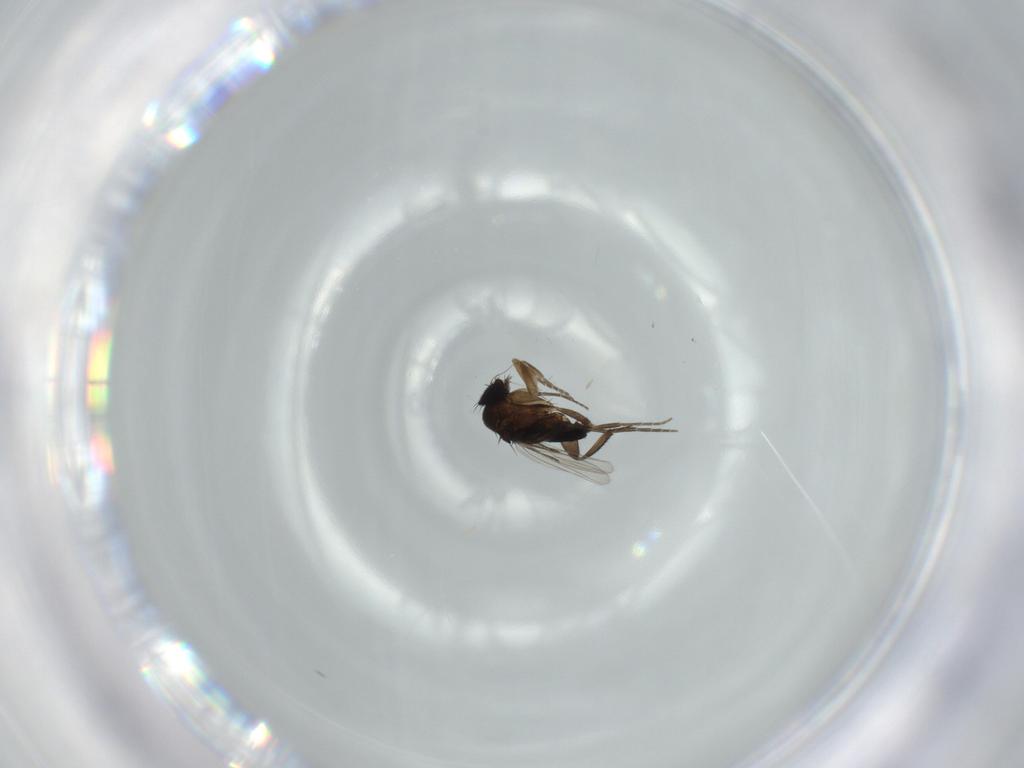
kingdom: Animalia
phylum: Arthropoda
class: Insecta
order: Diptera
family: Phoridae
